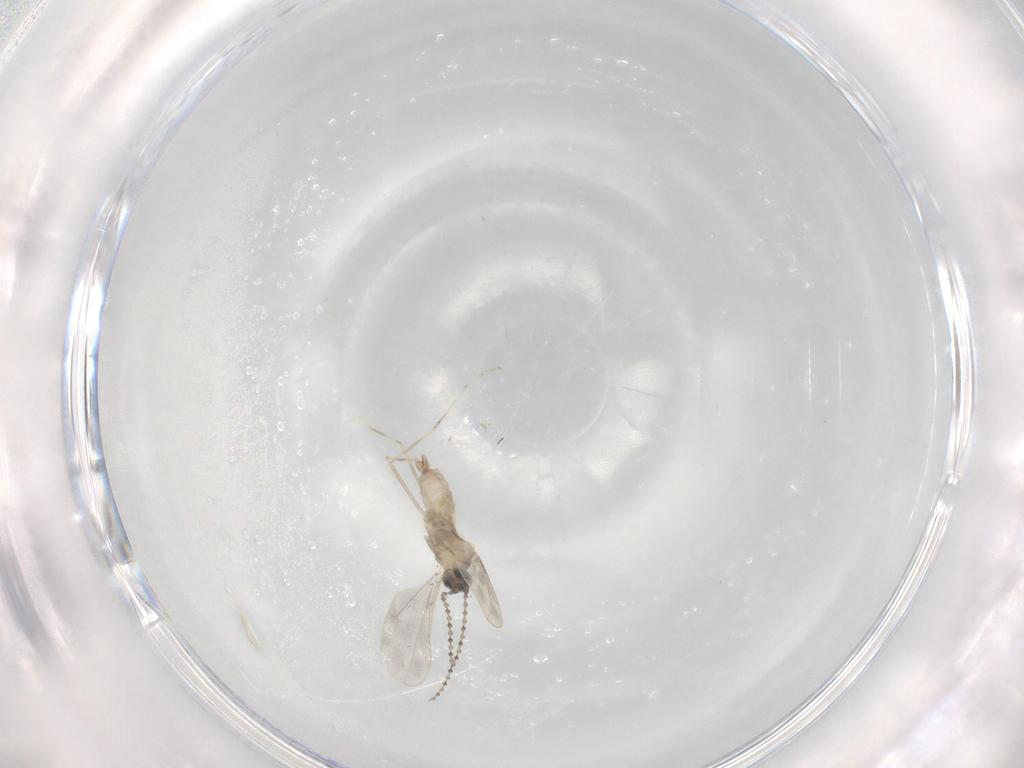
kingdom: Animalia
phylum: Arthropoda
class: Insecta
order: Diptera
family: Cecidomyiidae
